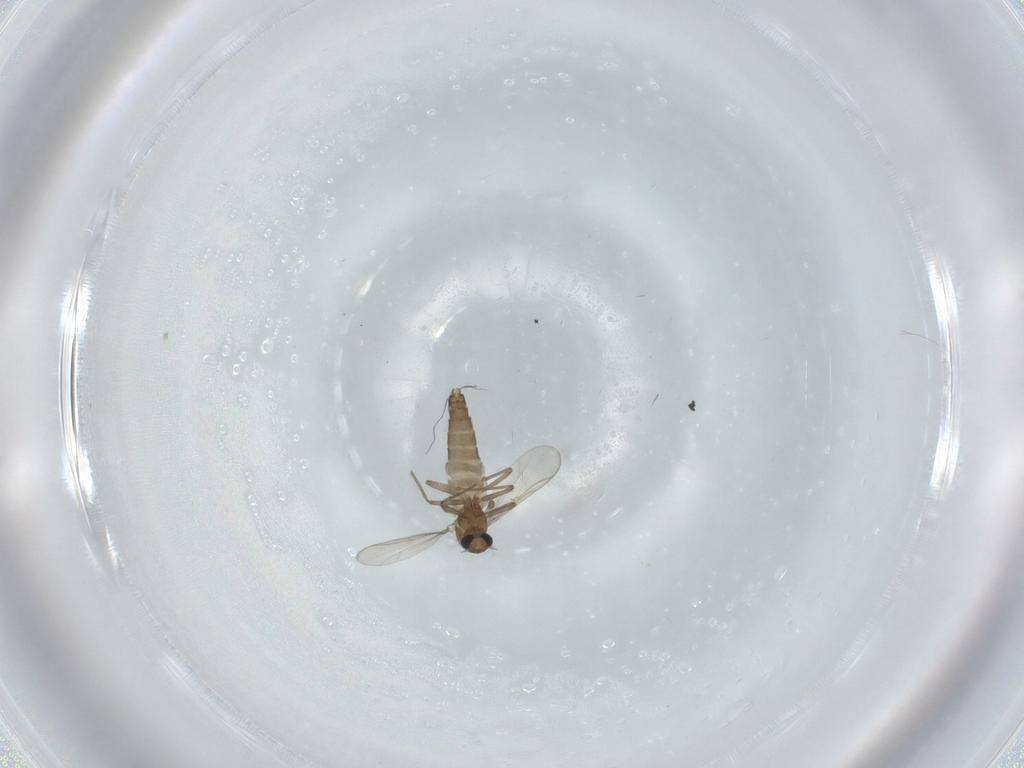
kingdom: Animalia
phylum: Arthropoda
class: Insecta
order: Diptera
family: Chironomidae
